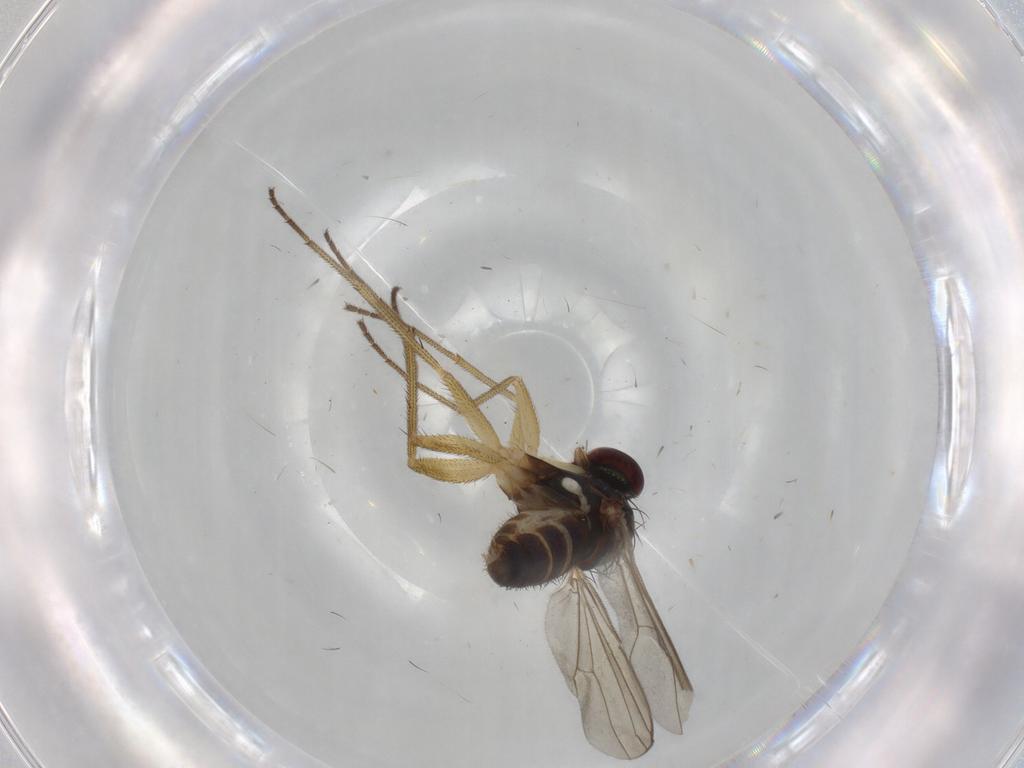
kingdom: Animalia
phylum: Arthropoda
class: Insecta
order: Diptera
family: Dolichopodidae
